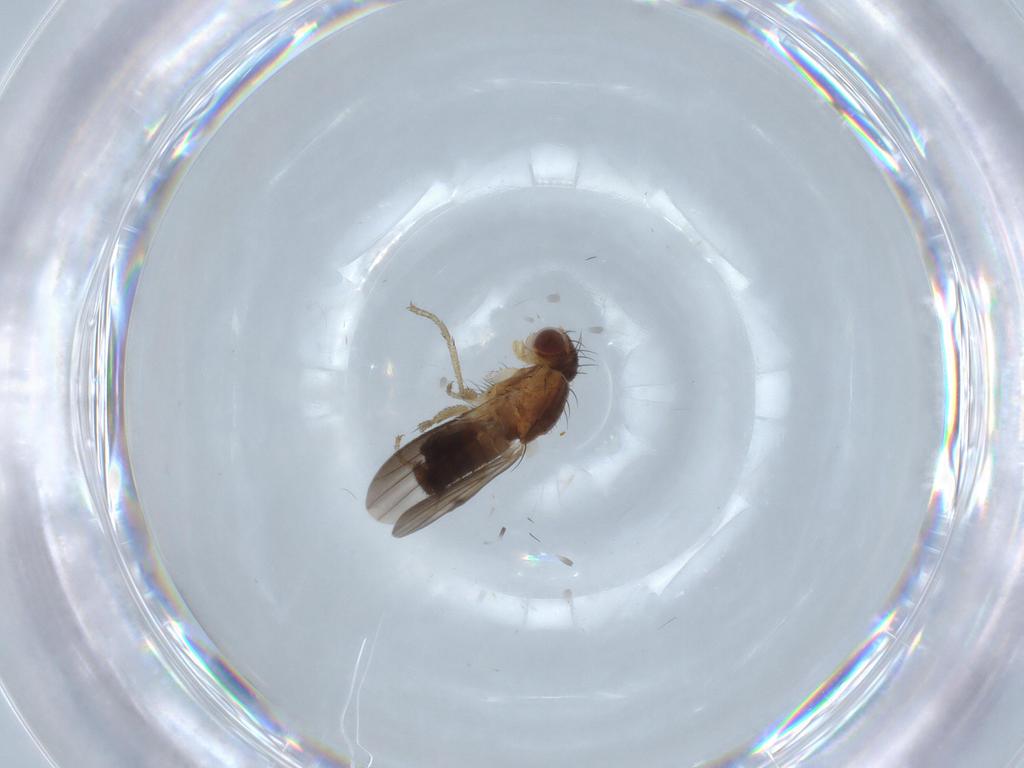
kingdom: Animalia
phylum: Arthropoda
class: Insecta
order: Diptera
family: Heleomyzidae
